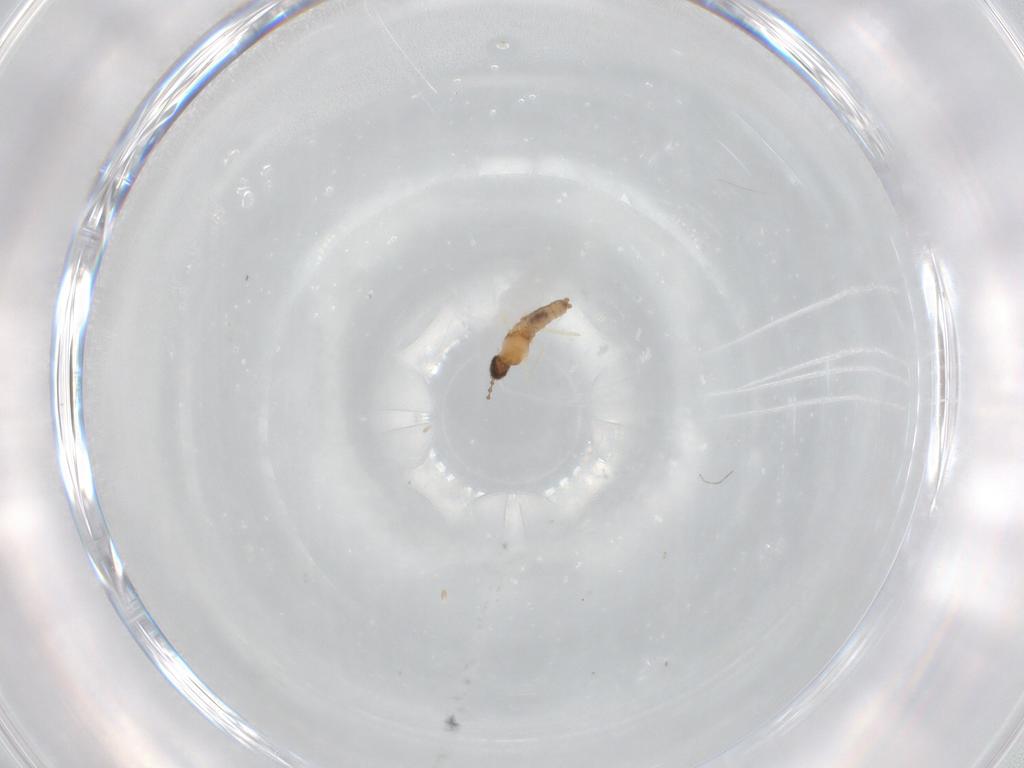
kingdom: Animalia
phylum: Arthropoda
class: Insecta
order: Diptera
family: Cecidomyiidae
